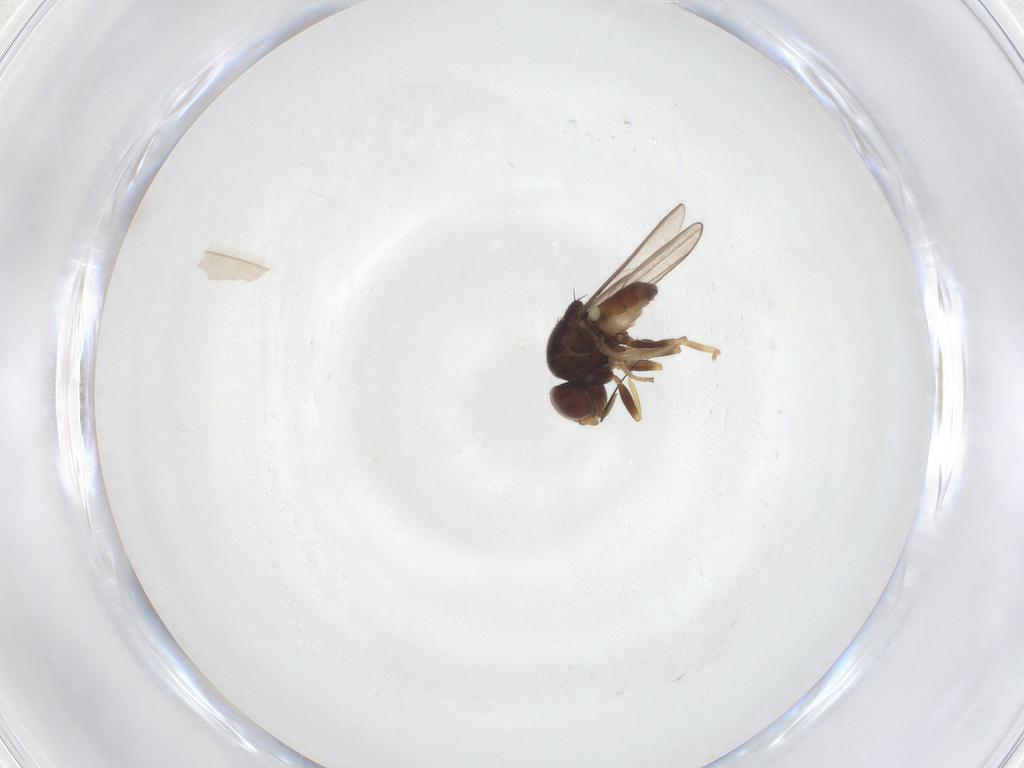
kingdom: Animalia
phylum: Arthropoda
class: Insecta
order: Diptera
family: Chloropidae
